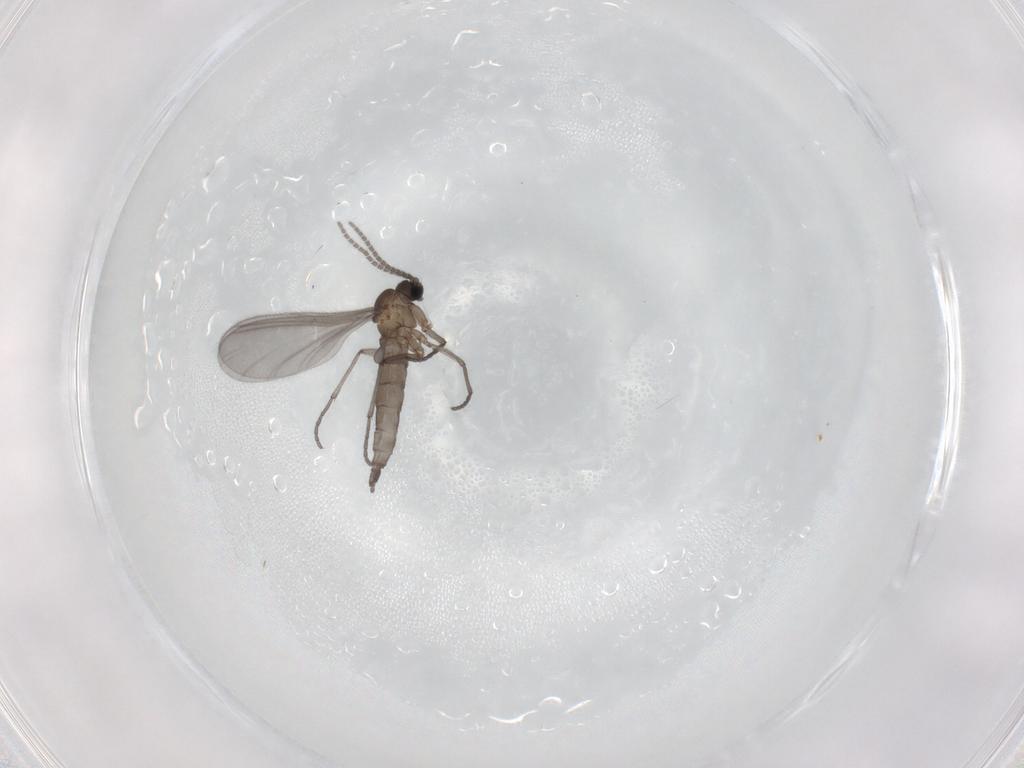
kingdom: Animalia
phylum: Arthropoda
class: Insecta
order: Diptera
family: Sciaridae
